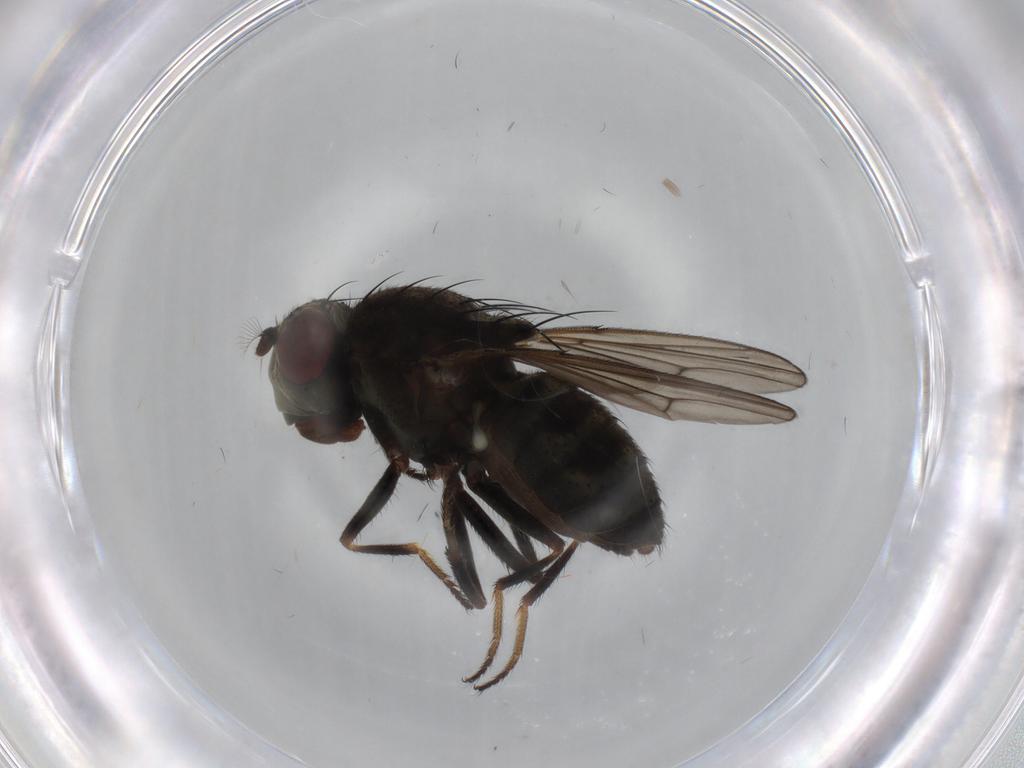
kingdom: Animalia
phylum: Arthropoda
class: Insecta
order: Diptera
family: Ephydridae
